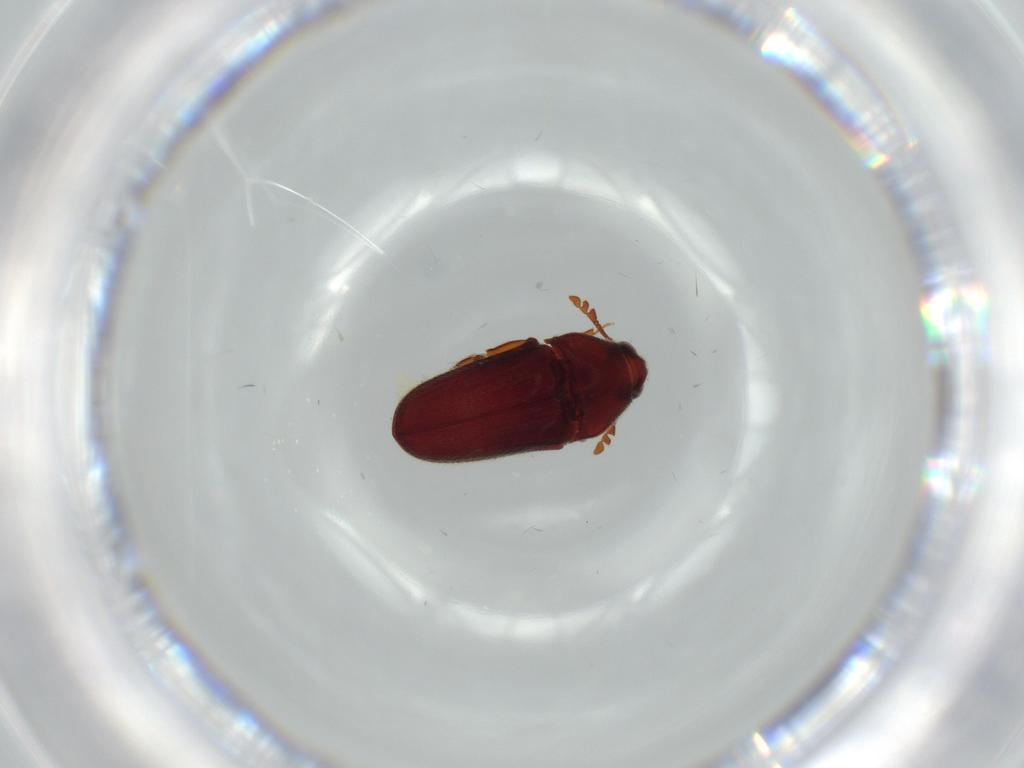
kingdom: Animalia
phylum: Arthropoda
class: Insecta
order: Coleoptera
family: Throscidae
